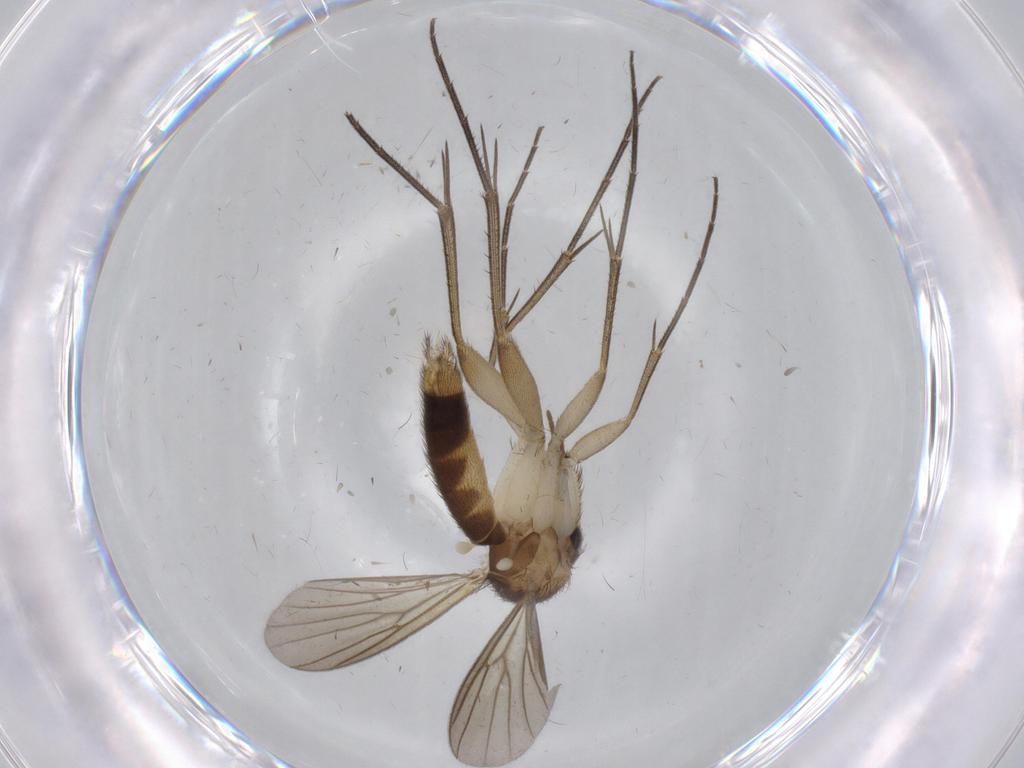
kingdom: Animalia
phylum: Arthropoda
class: Insecta
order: Diptera
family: Mycetophilidae
